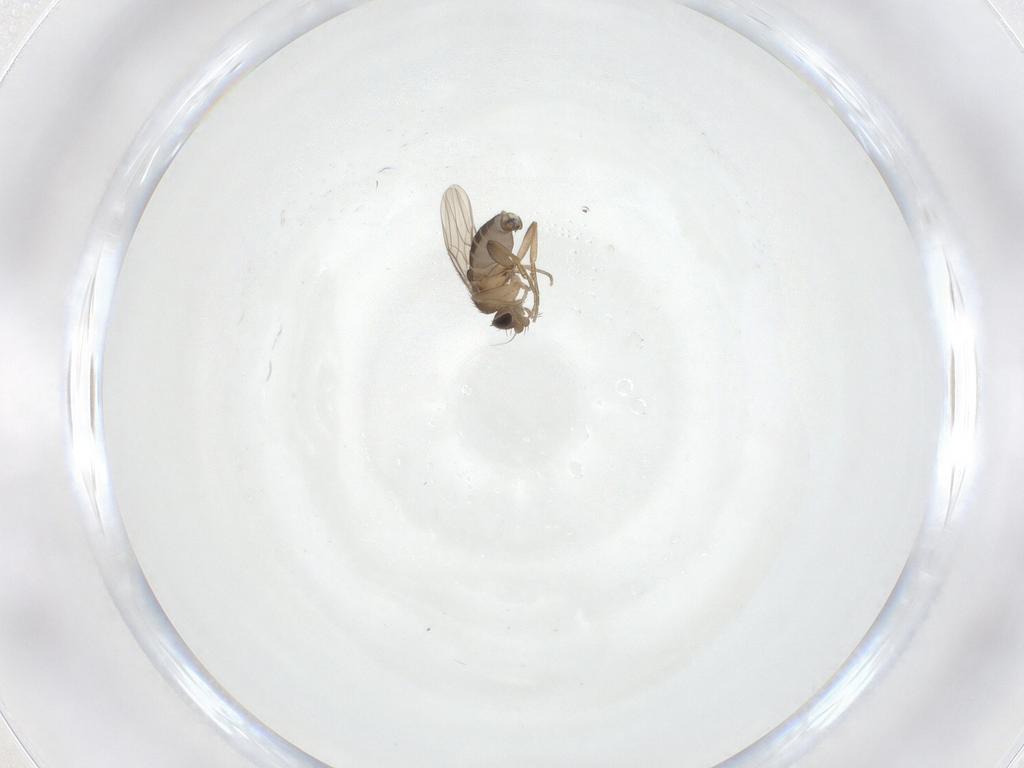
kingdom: Animalia
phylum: Arthropoda
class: Insecta
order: Diptera
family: Phoridae
